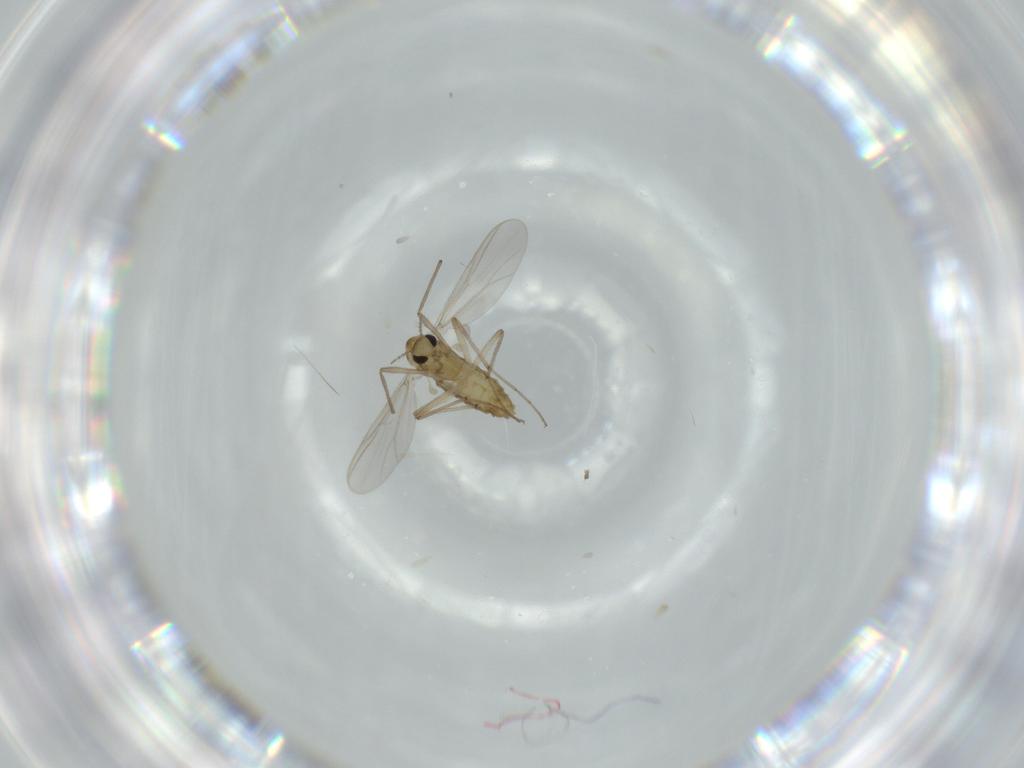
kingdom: Animalia
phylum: Arthropoda
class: Insecta
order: Diptera
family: Chironomidae
